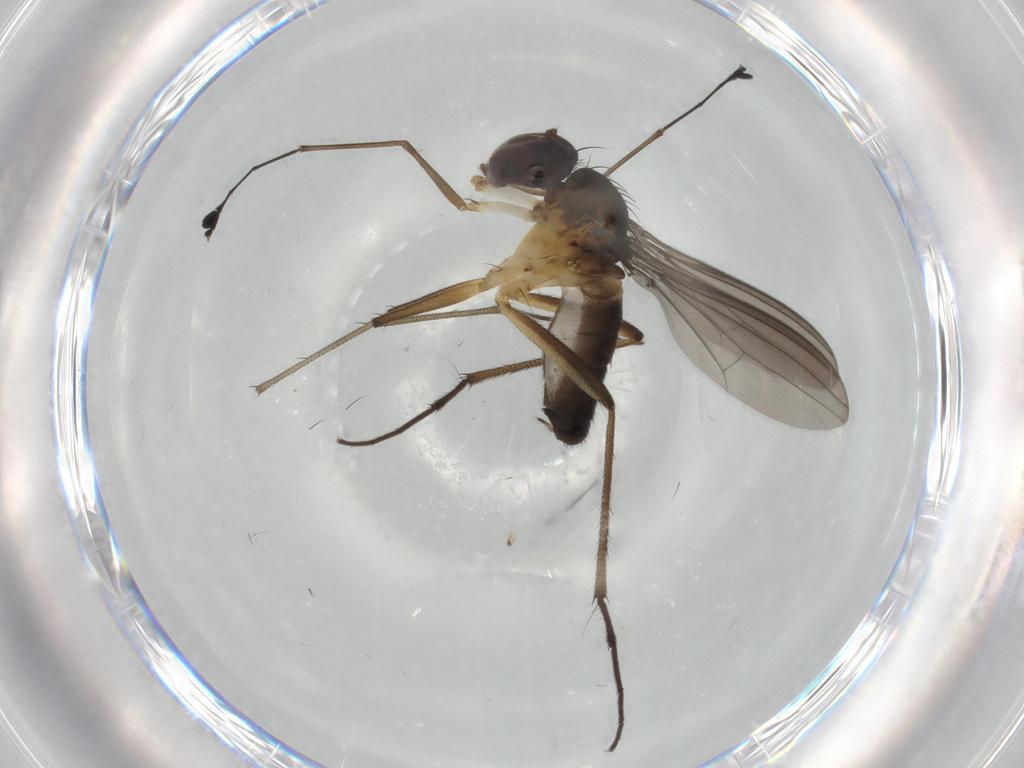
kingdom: Animalia
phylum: Arthropoda
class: Insecta
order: Diptera
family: Dolichopodidae
